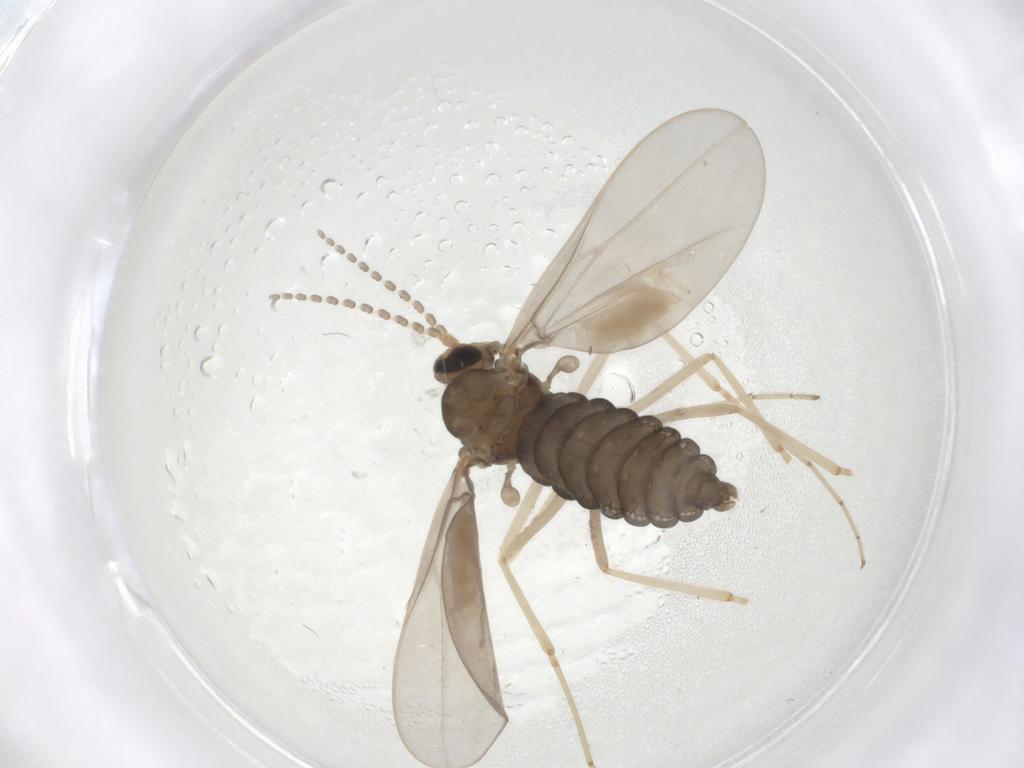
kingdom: Animalia
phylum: Arthropoda
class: Insecta
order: Diptera
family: Cecidomyiidae
